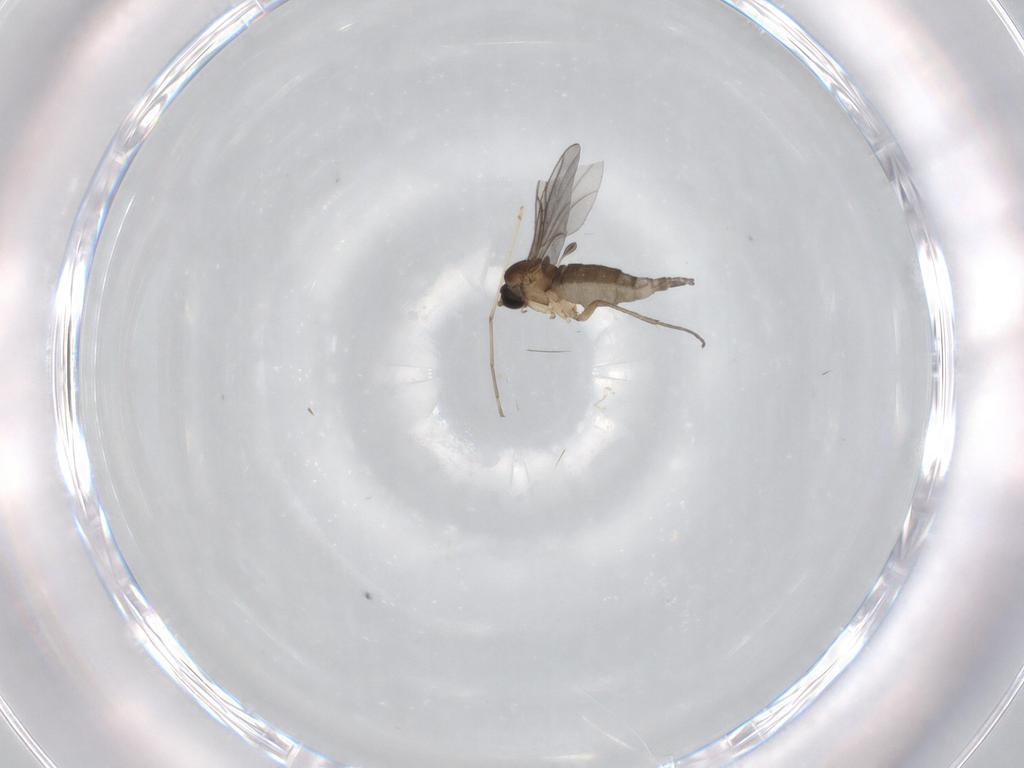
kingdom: Animalia
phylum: Arthropoda
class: Insecta
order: Diptera
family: Sciaridae
